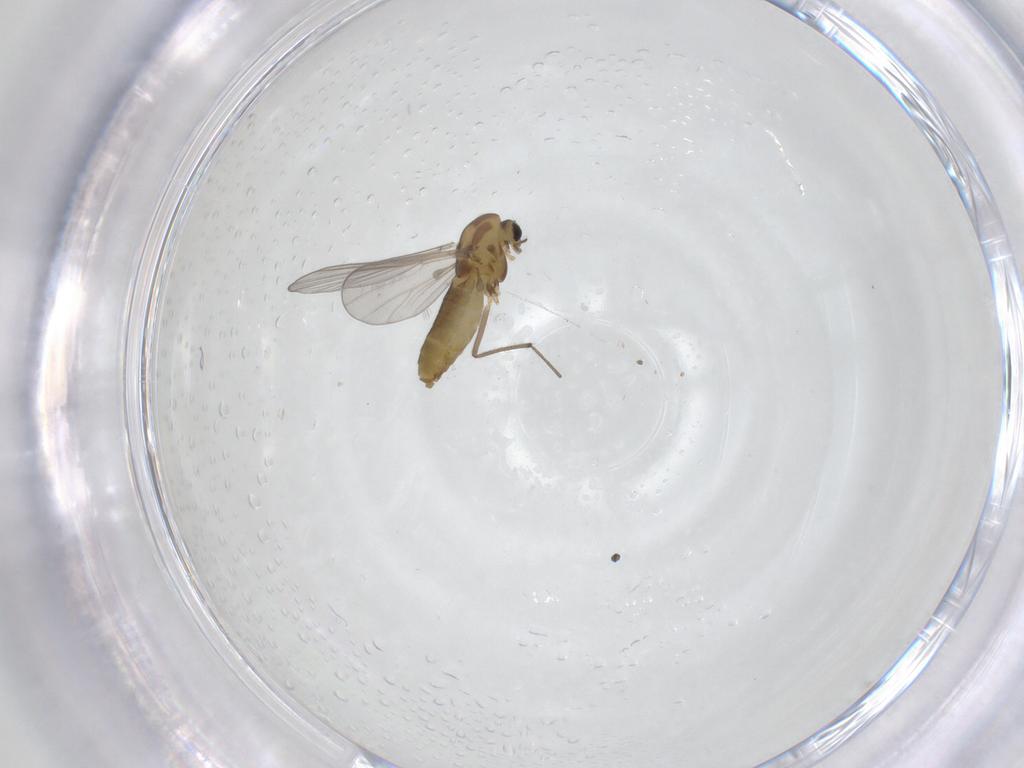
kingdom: Animalia
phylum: Arthropoda
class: Insecta
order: Diptera
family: Chironomidae
